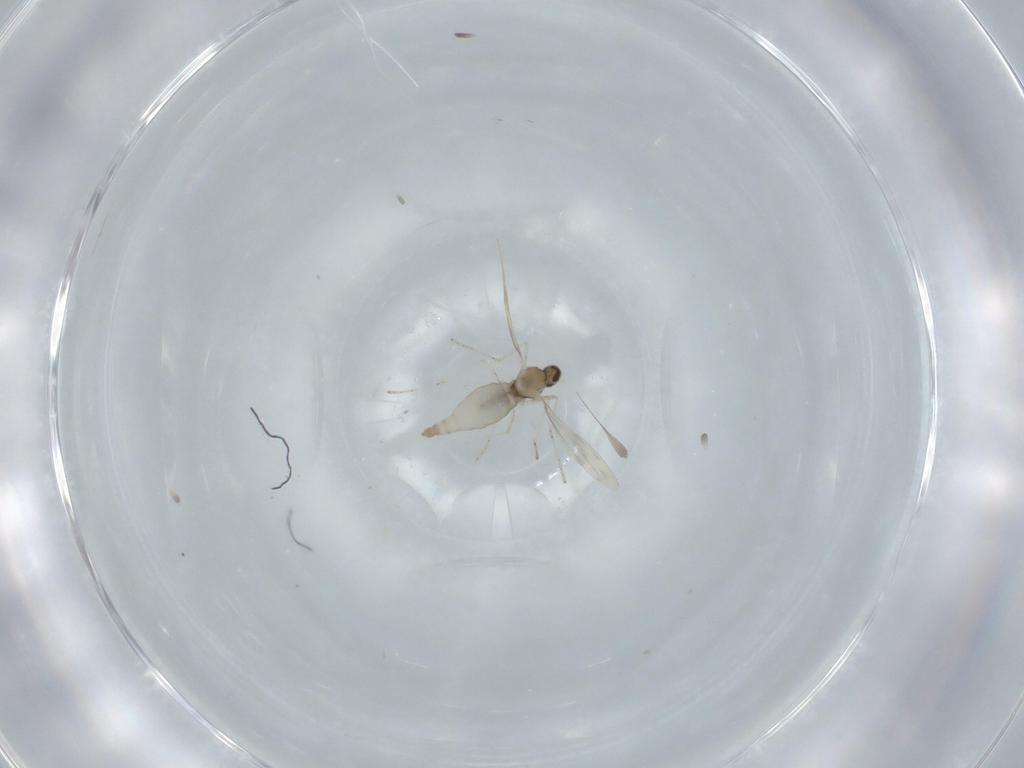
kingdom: Animalia
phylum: Arthropoda
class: Insecta
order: Diptera
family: Cecidomyiidae
